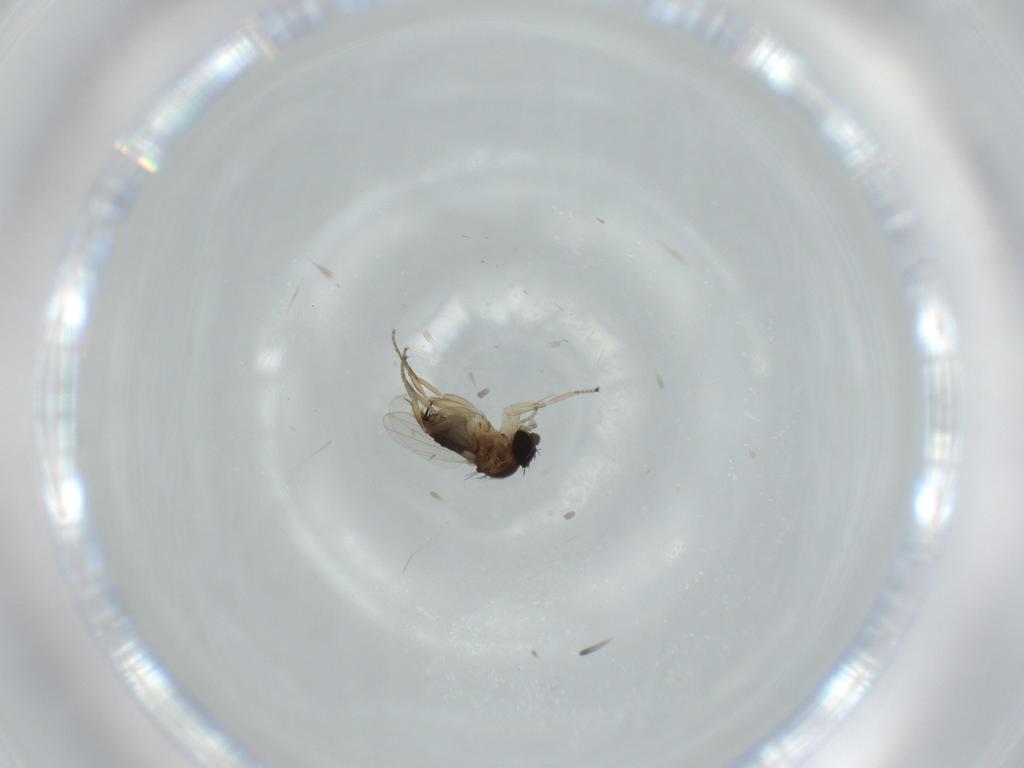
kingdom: Animalia
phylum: Arthropoda
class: Insecta
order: Diptera
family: Phoridae
